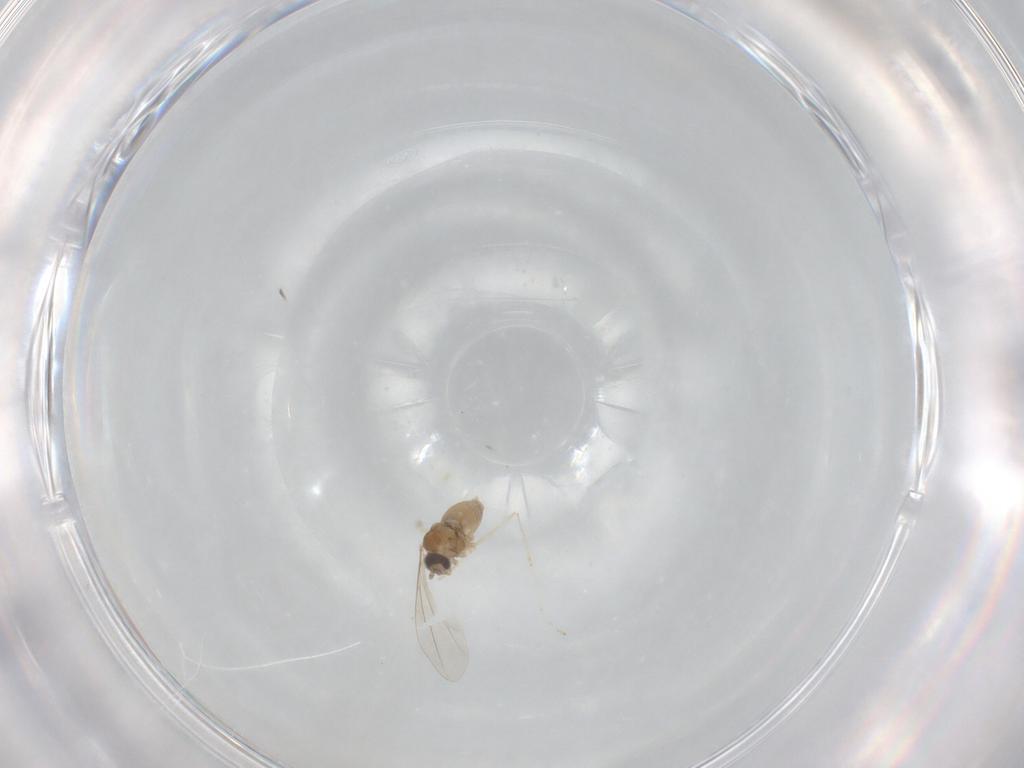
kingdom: Animalia
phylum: Arthropoda
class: Insecta
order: Diptera
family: Cecidomyiidae
